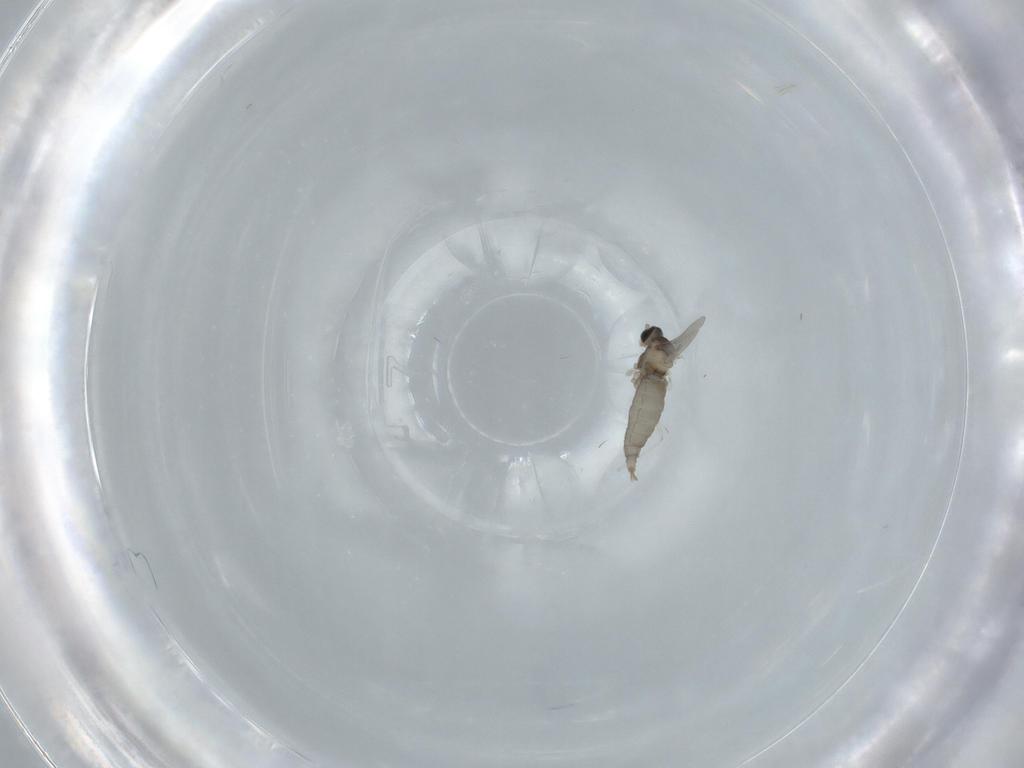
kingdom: Animalia
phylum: Arthropoda
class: Insecta
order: Diptera
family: Cecidomyiidae
